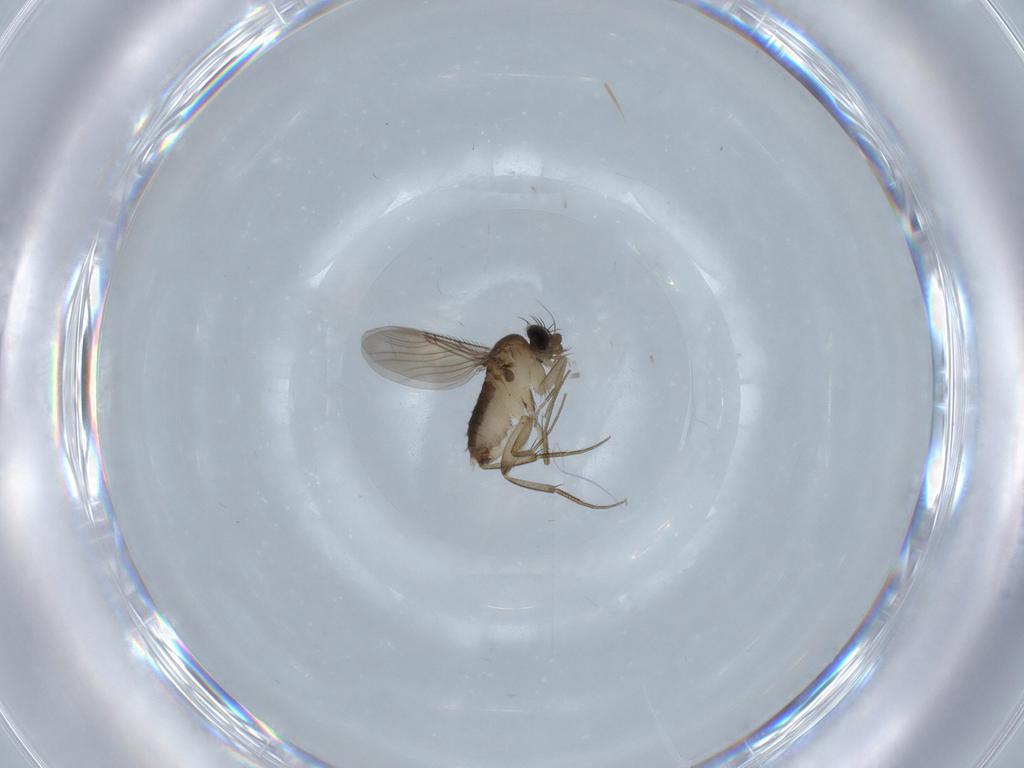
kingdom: Animalia
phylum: Arthropoda
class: Insecta
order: Diptera
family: Phoridae
